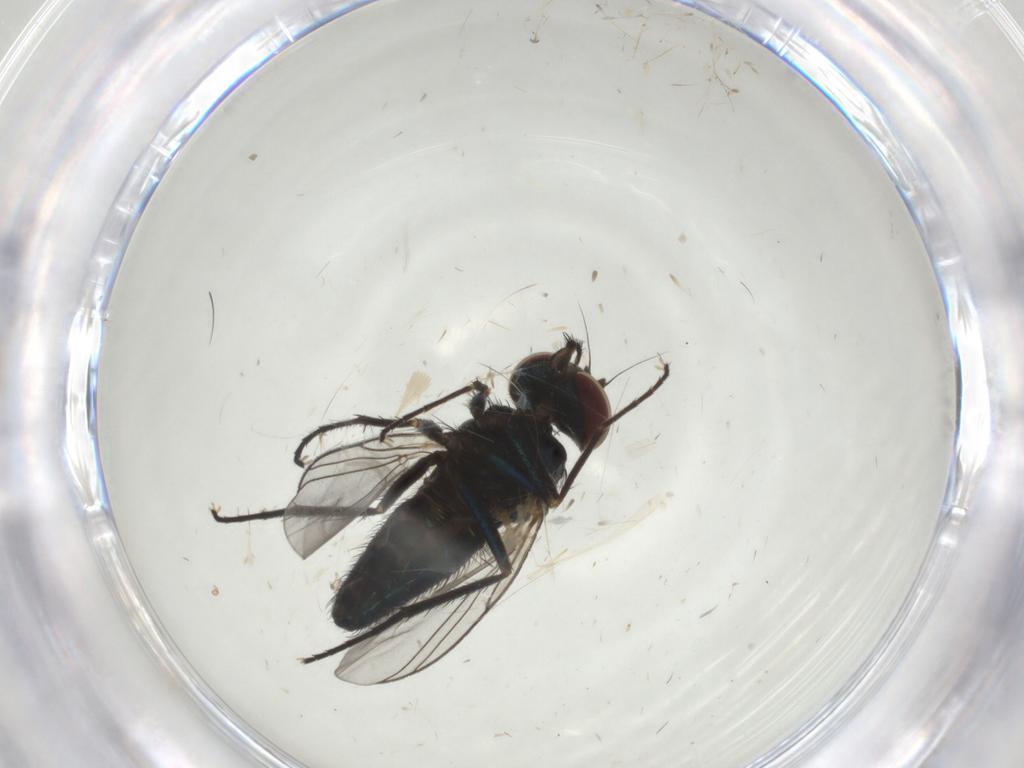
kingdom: Animalia
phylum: Arthropoda
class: Insecta
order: Diptera
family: Dolichopodidae
